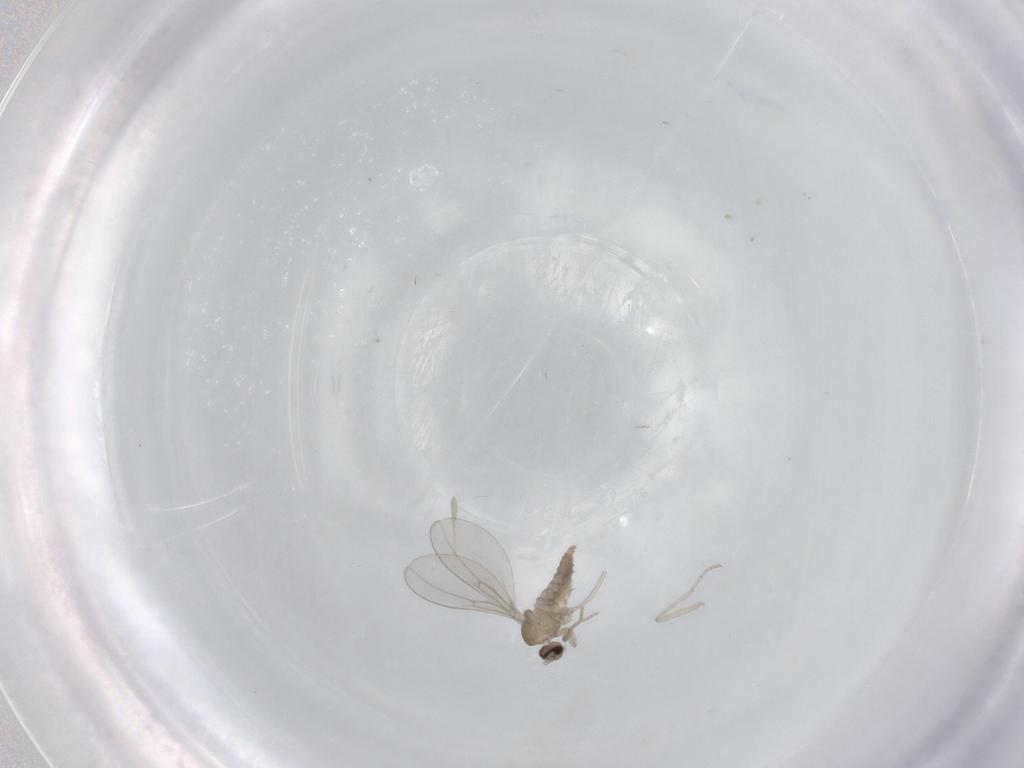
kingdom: Animalia
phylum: Arthropoda
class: Insecta
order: Diptera
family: Cecidomyiidae
